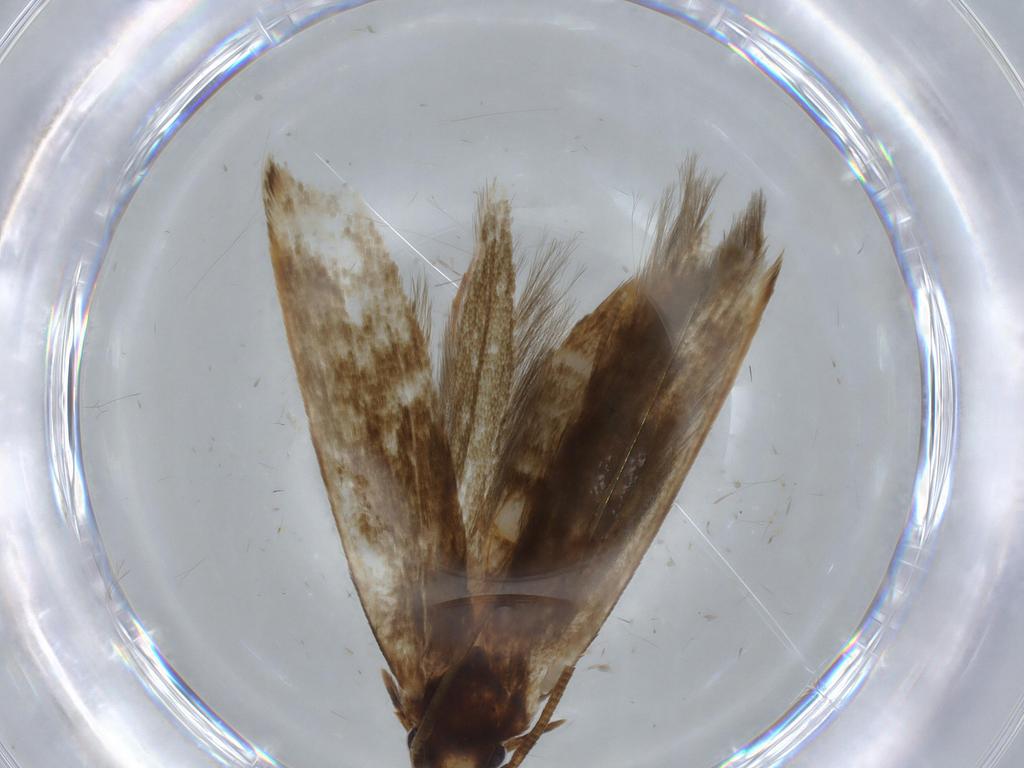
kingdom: Animalia
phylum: Arthropoda
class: Insecta
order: Lepidoptera
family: Tineidae
